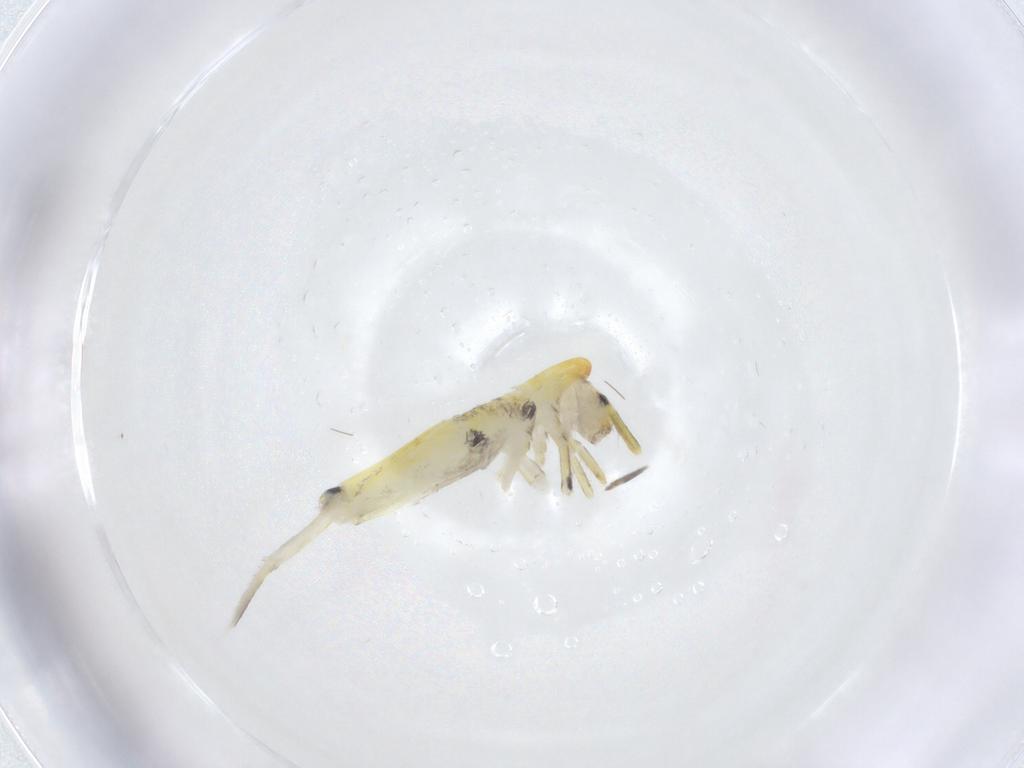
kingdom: Animalia
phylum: Arthropoda
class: Collembola
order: Entomobryomorpha
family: Entomobryidae
